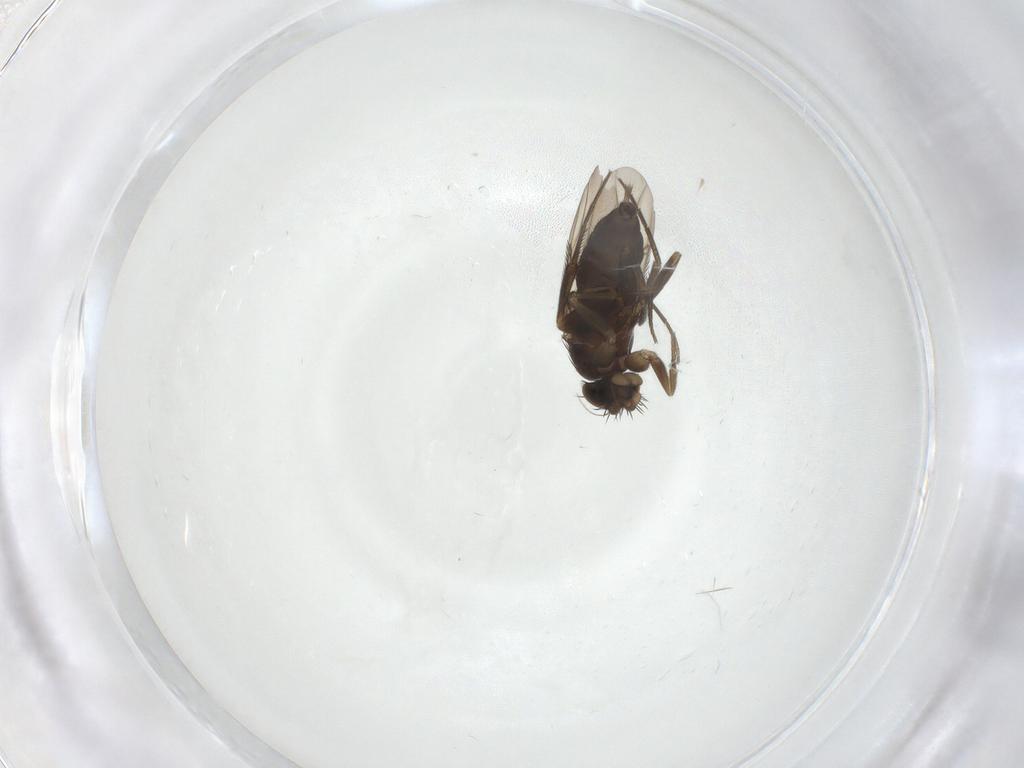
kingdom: Animalia
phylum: Arthropoda
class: Insecta
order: Diptera
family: Phoridae
